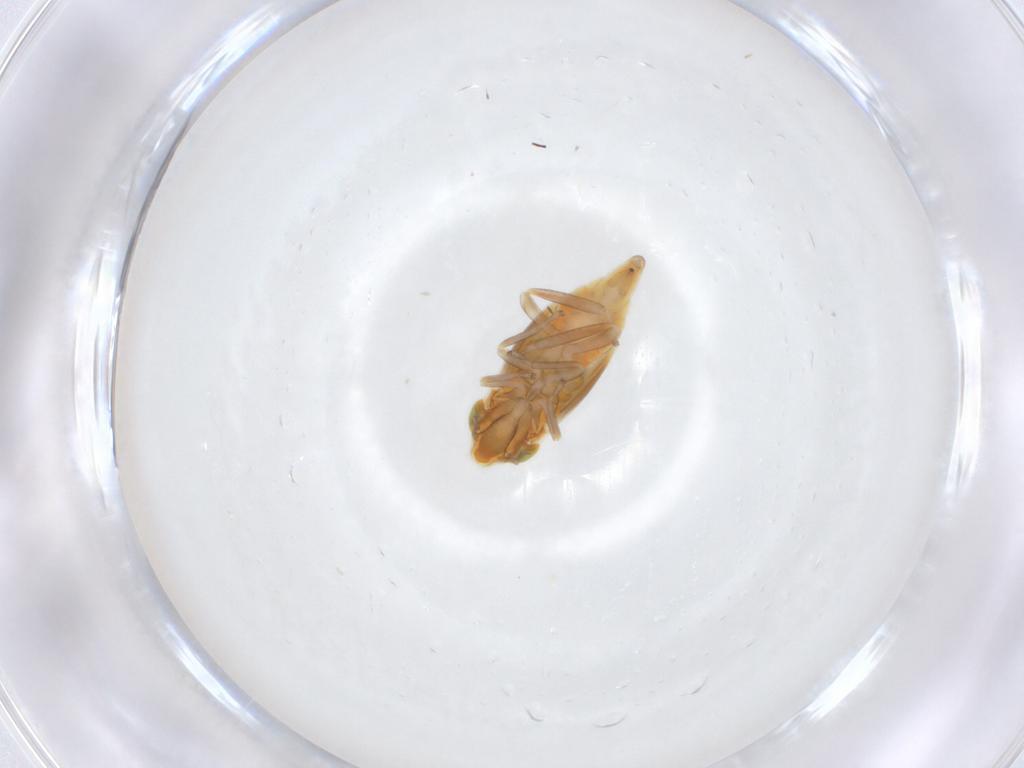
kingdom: Animalia
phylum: Arthropoda
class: Insecta
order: Hemiptera
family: Cicadellidae
